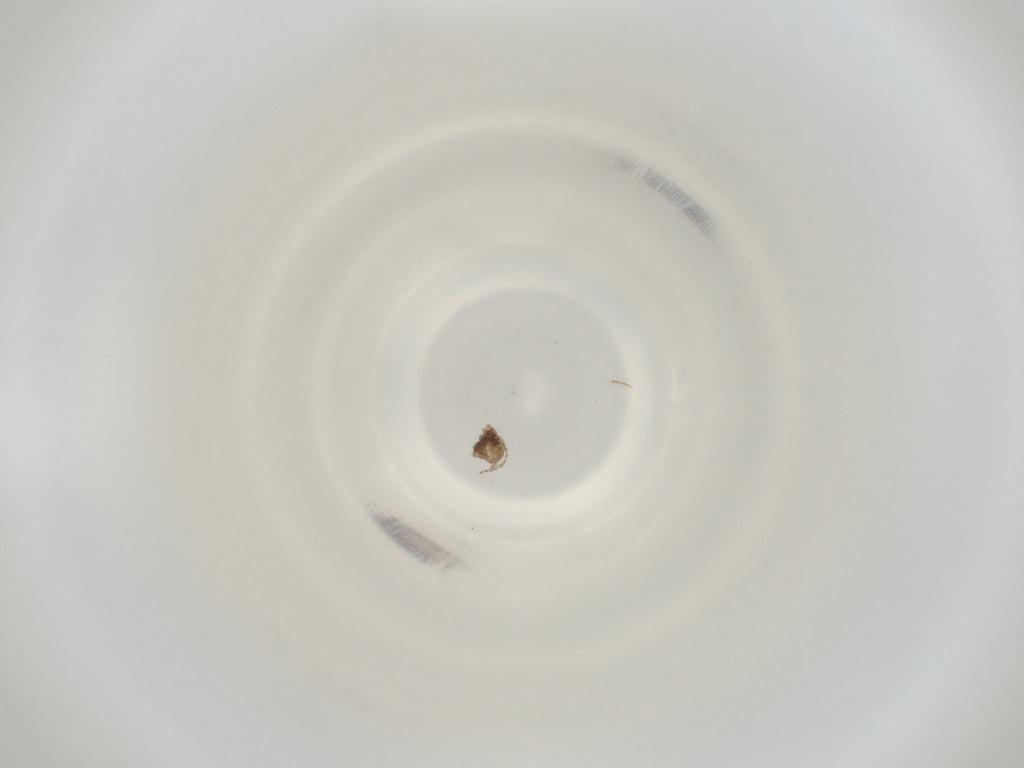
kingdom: Animalia
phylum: Arthropoda
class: Insecta
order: Diptera
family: Cecidomyiidae
